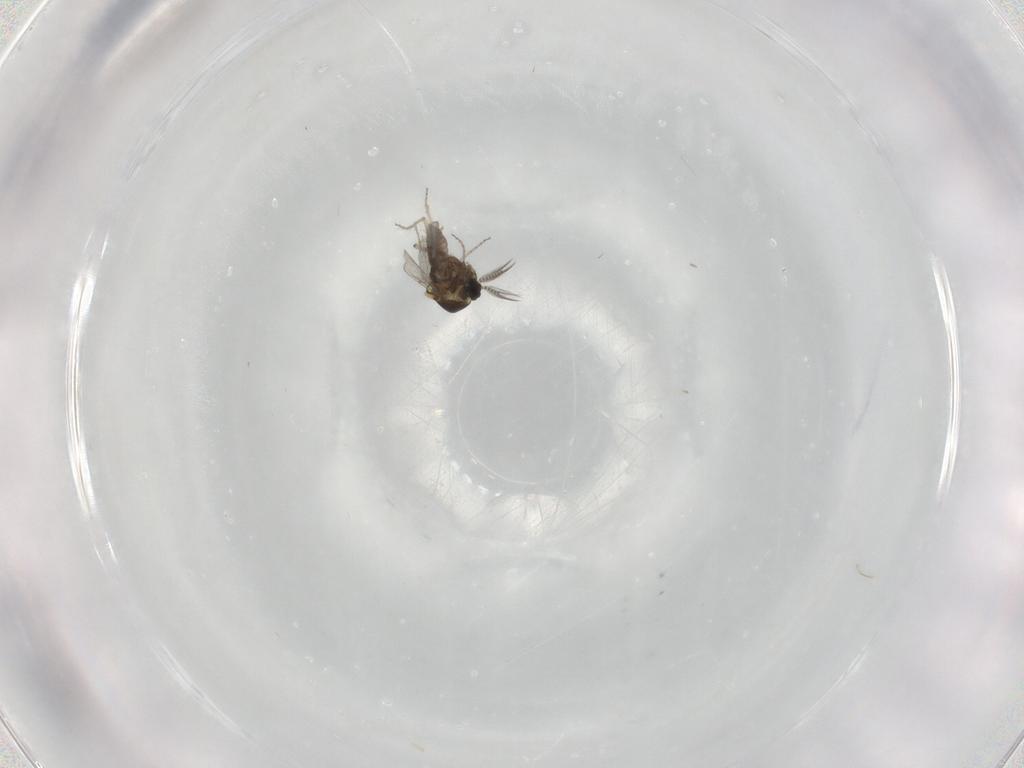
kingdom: Animalia
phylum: Arthropoda
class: Insecta
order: Diptera
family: Ceratopogonidae
